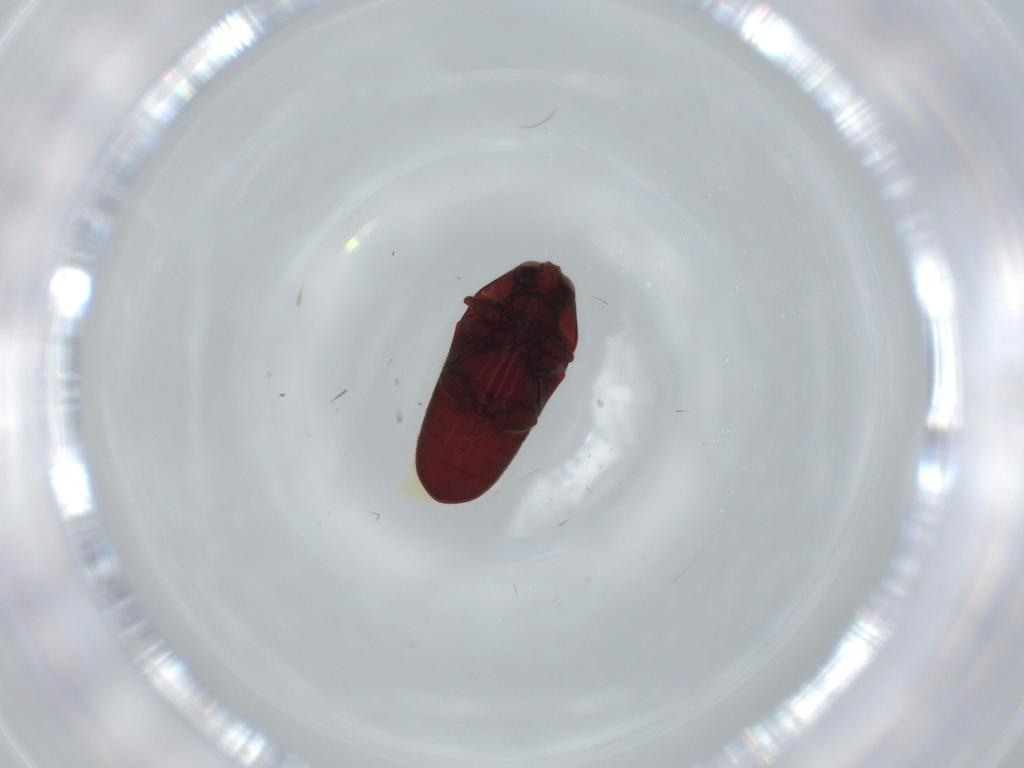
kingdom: Animalia
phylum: Arthropoda
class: Insecta
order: Coleoptera
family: Throscidae
